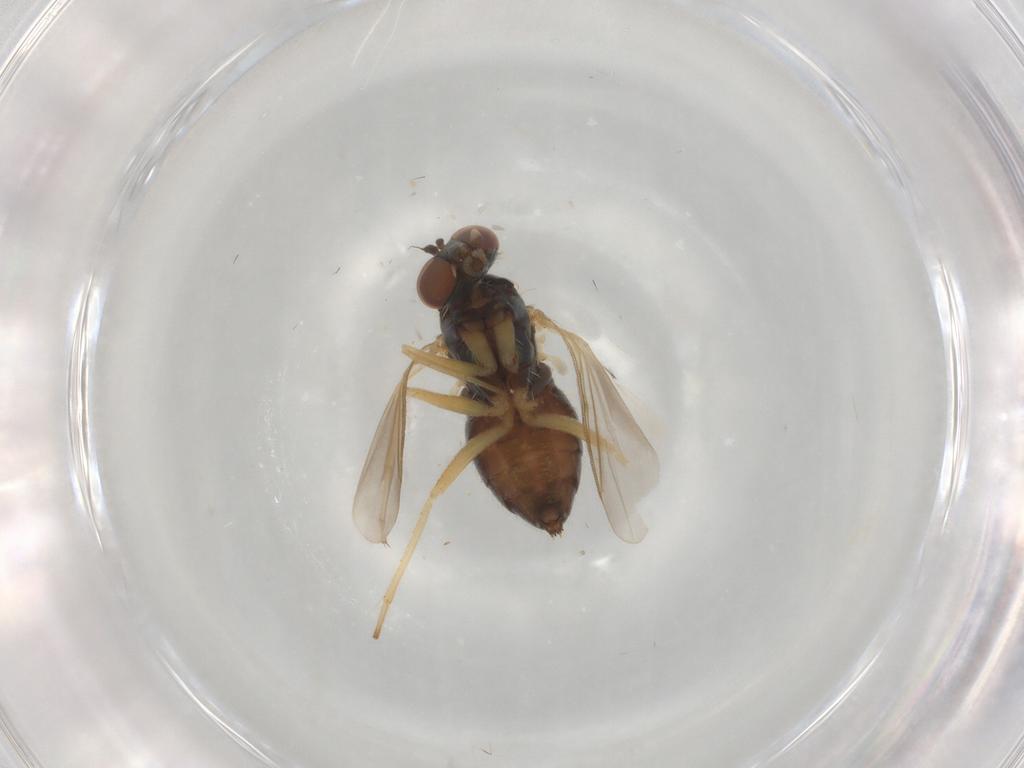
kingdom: Animalia
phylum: Arthropoda
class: Insecta
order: Diptera
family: Dolichopodidae
